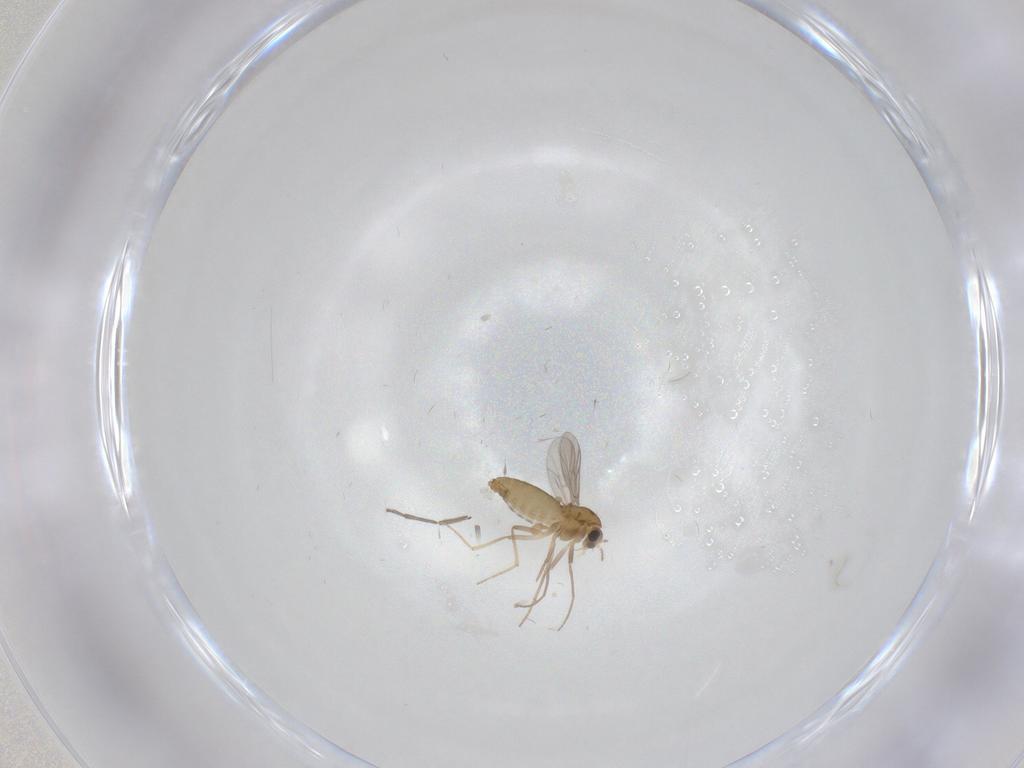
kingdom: Animalia
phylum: Arthropoda
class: Insecta
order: Diptera
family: Chironomidae
